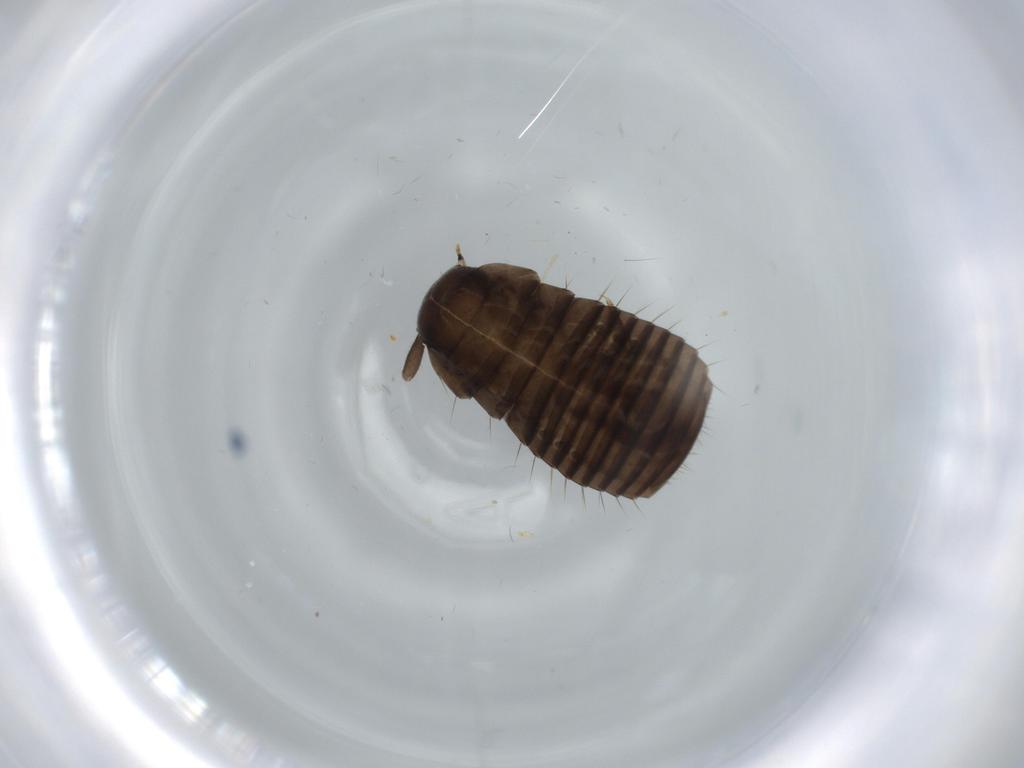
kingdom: Animalia
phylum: Arthropoda
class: Insecta
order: Coleoptera
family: Tenebrionidae
